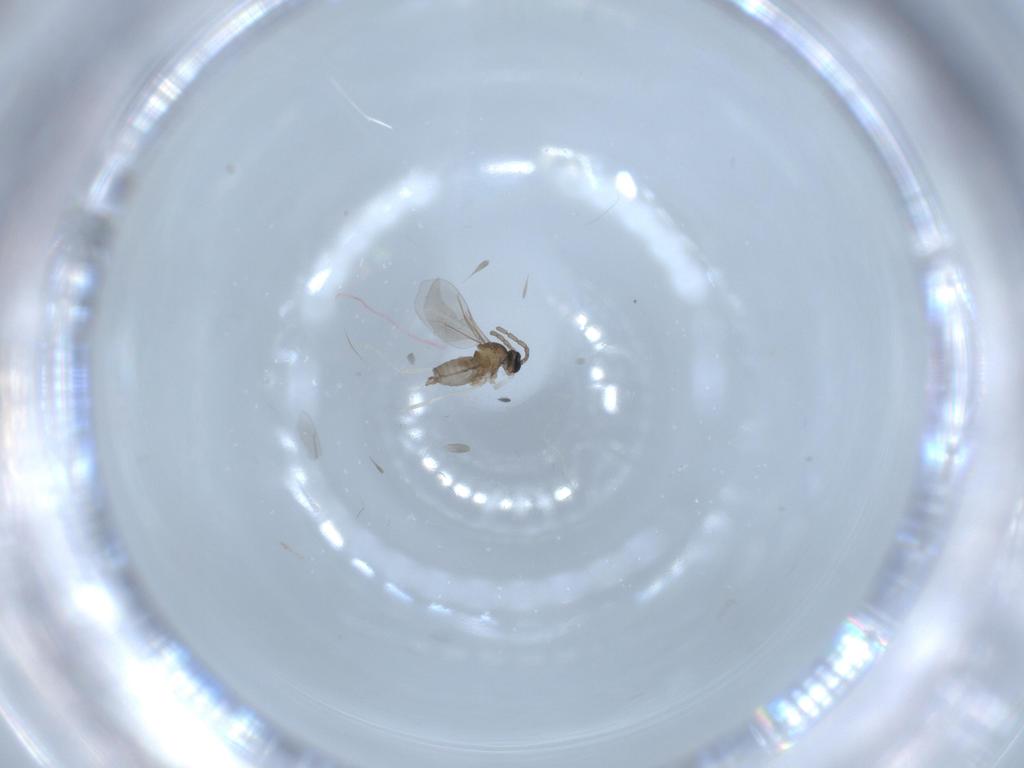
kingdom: Animalia
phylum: Arthropoda
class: Insecta
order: Diptera
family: Cecidomyiidae
